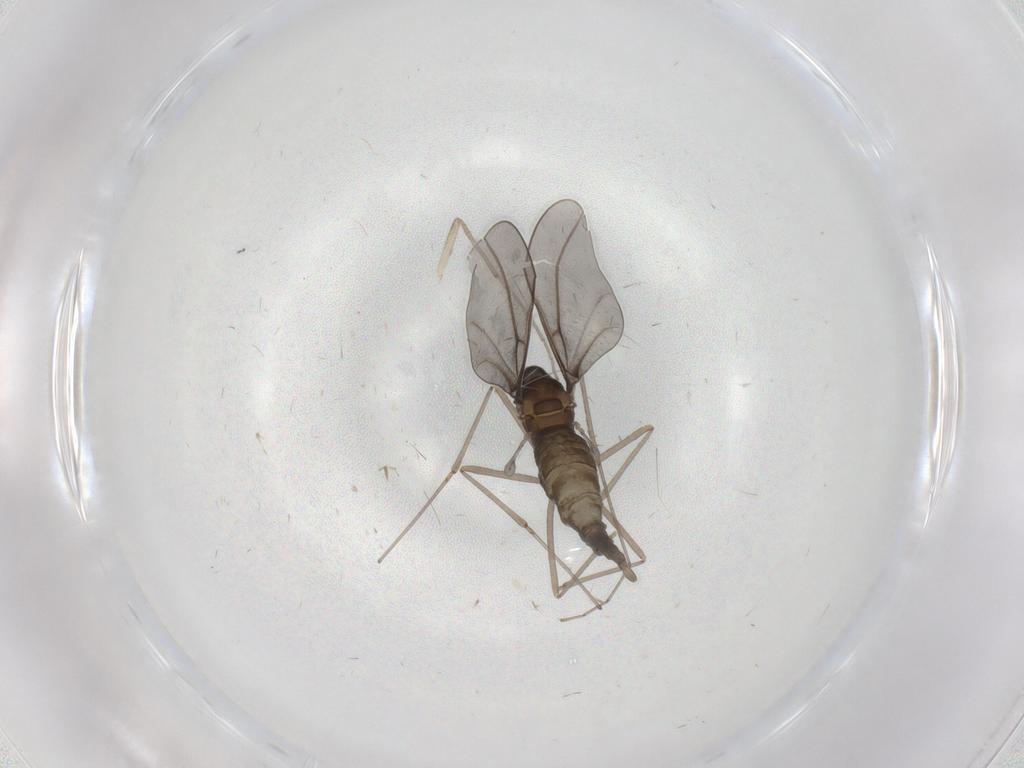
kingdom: Animalia
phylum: Arthropoda
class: Insecta
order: Diptera
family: Chironomidae
